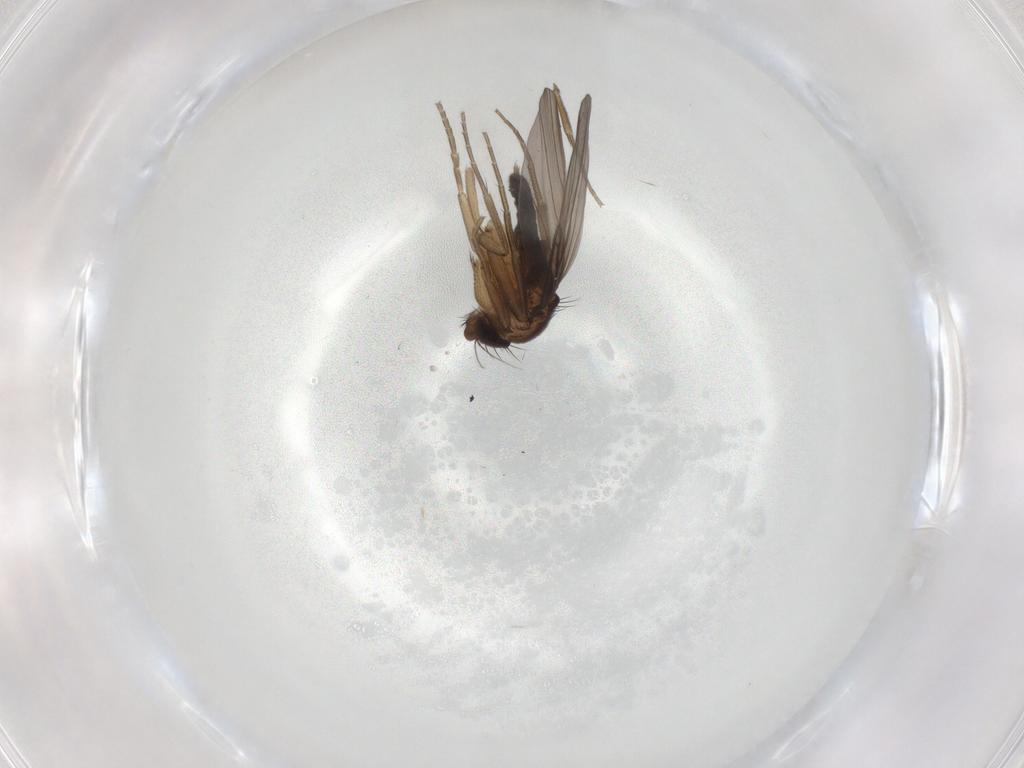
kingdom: Animalia
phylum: Arthropoda
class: Insecta
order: Diptera
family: Phoridae
